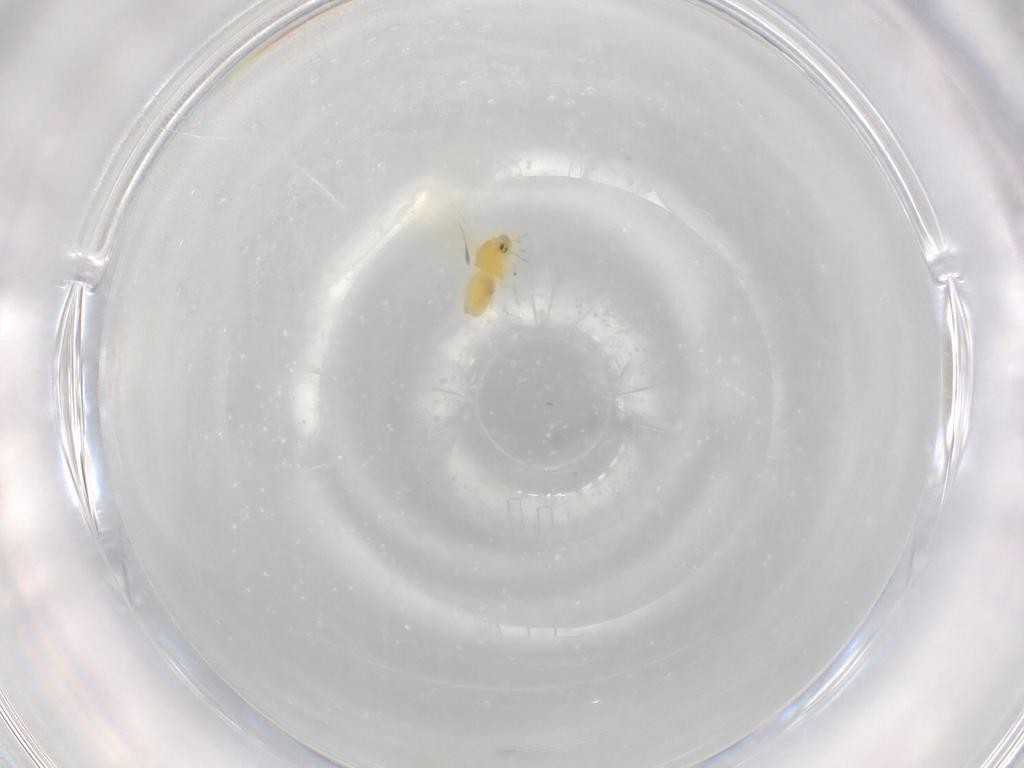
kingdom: Animalia
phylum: Arthropoda
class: Insecta
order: Hemiptera
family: Aleyrodidae
